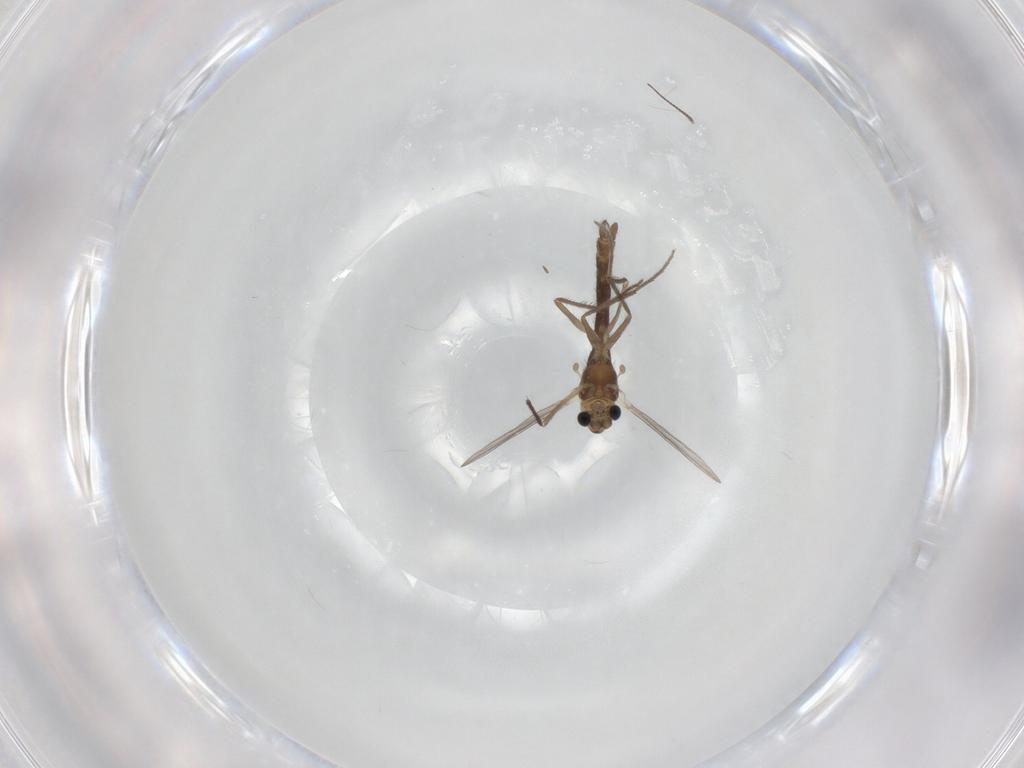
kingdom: Animalia
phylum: Arthropoda
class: Insecta
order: Diptera
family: Chironomidae
